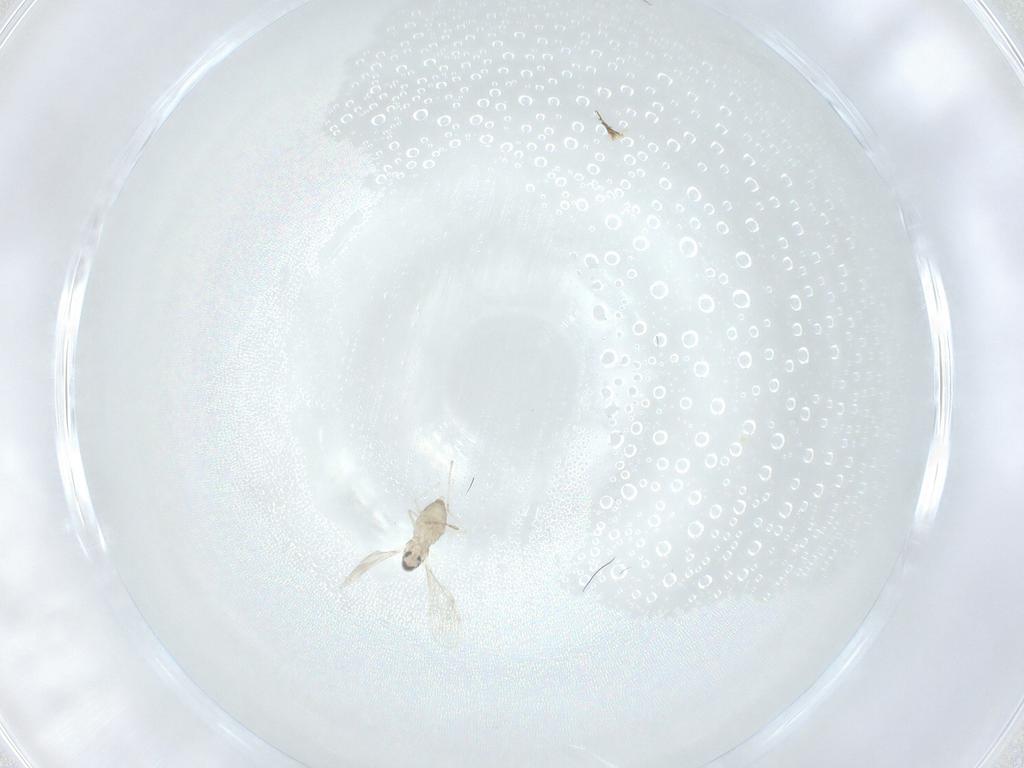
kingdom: Animalia
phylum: Arthropoda
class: Insecta
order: Diptera
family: Cecidomyiidae
